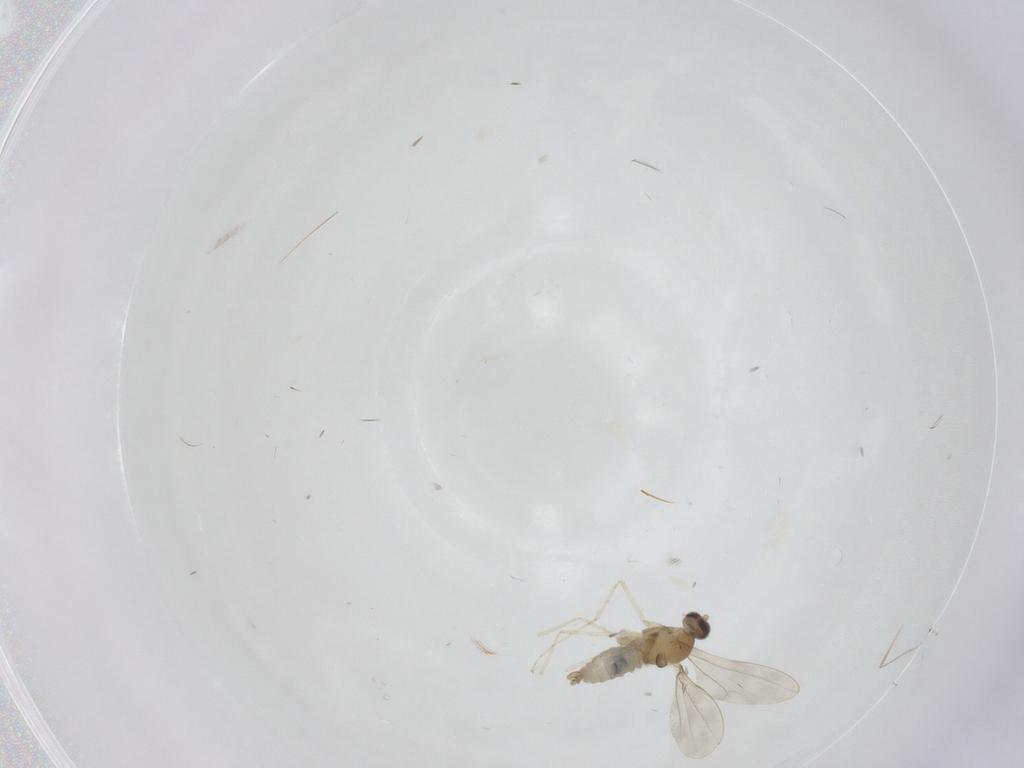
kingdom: Animalia
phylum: Arthropoda
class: Insecta
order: Diptera
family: Cecidomyiidae
